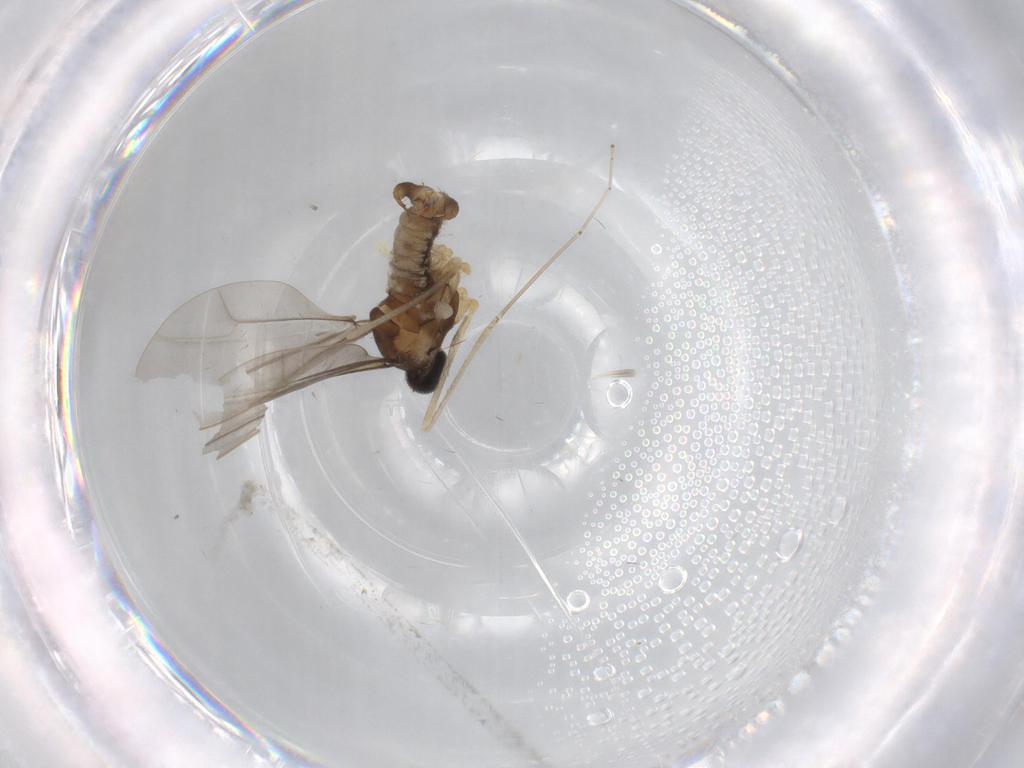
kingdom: Animalia
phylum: Arthropoda
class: Insecta
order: Diptera
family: Cecidomyiidae
